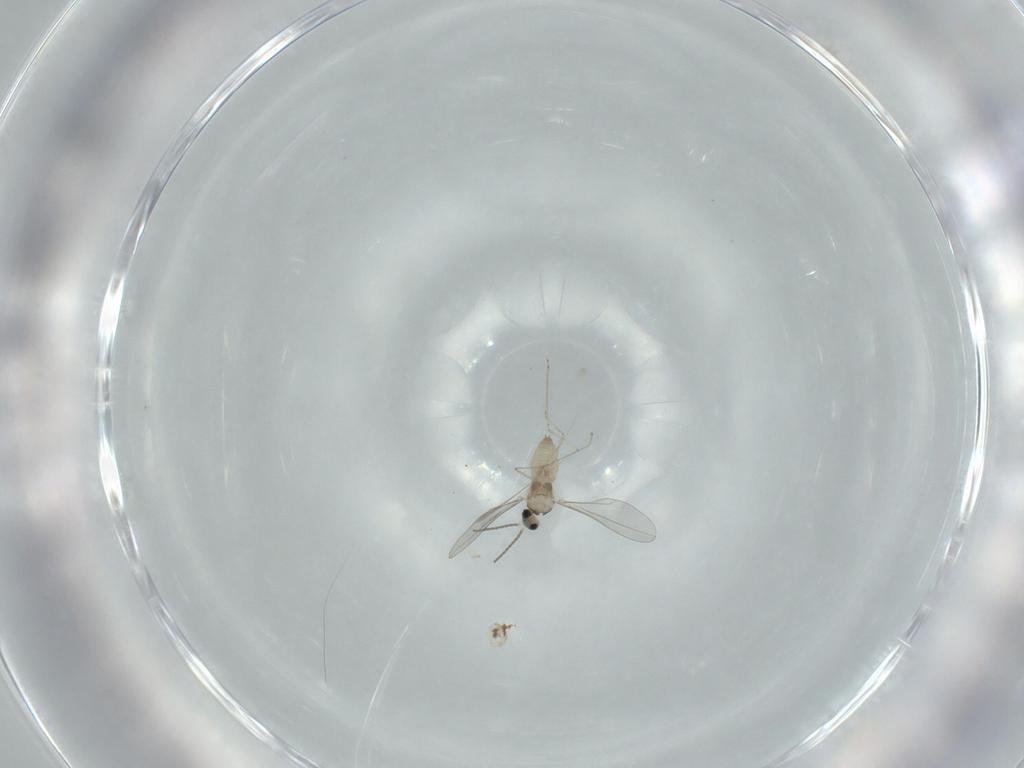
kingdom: Animalia
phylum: Arthropoda
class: Insecta
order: Diptera
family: Cecidomyiidae
